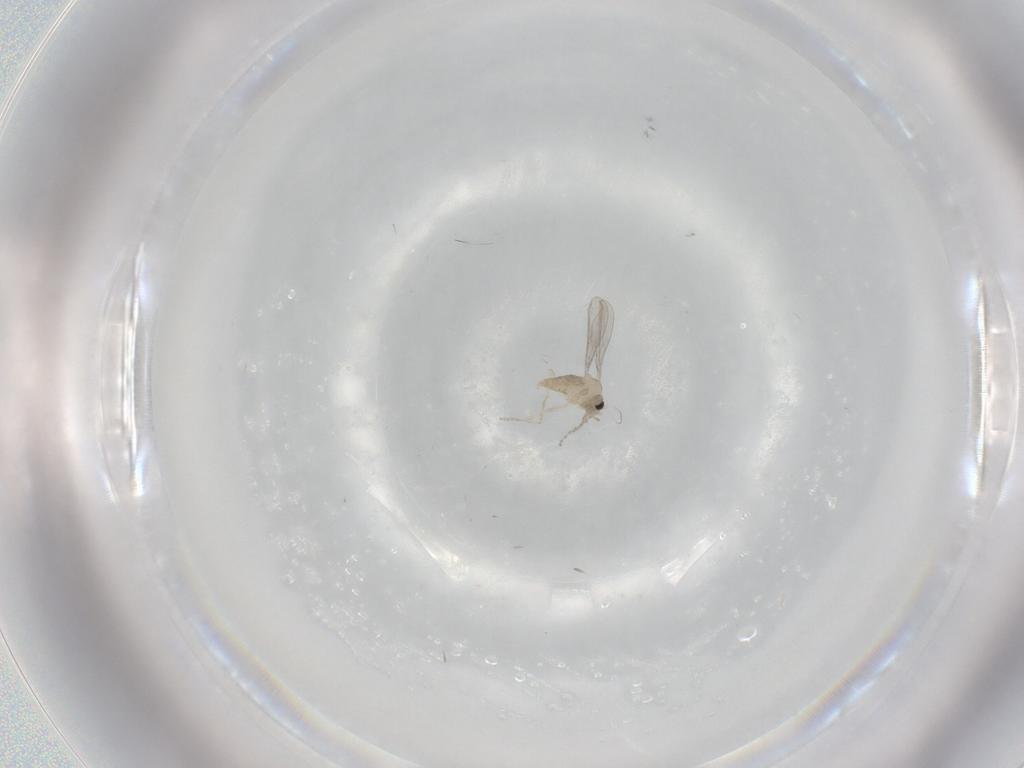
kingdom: Animalia
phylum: Arthropoda
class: Insecta
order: Diptera
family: Cecidomyiidae
